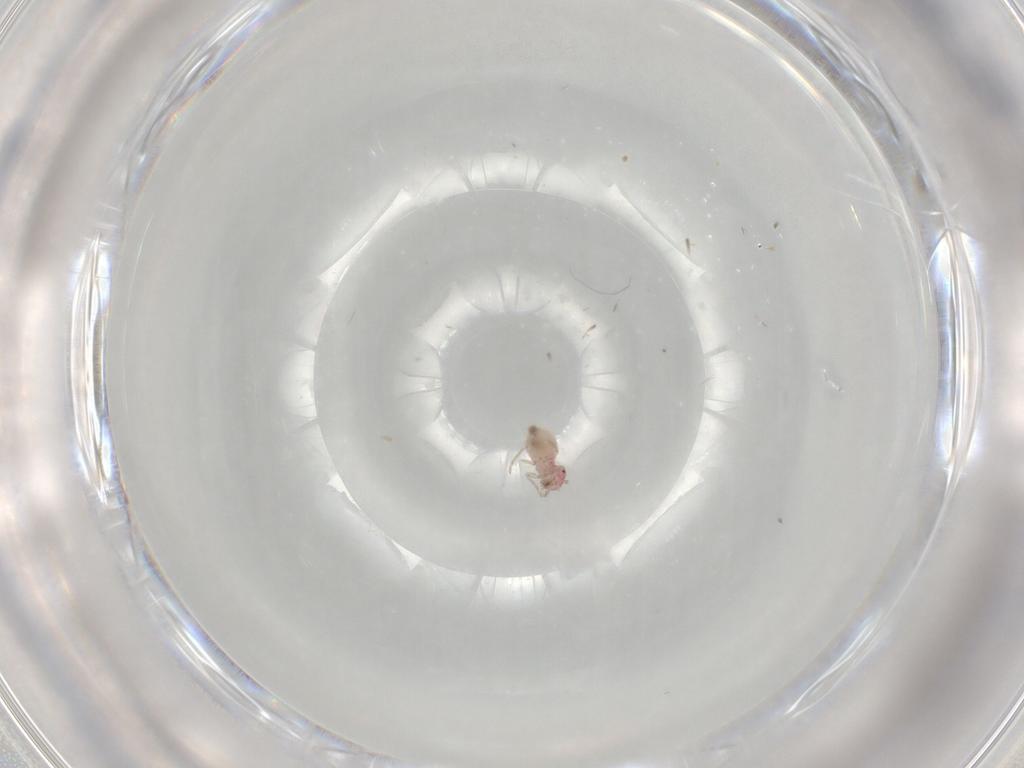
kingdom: Animalia
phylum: Arthropoda
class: Insecta
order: Psocodea
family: Asiopsocidae
